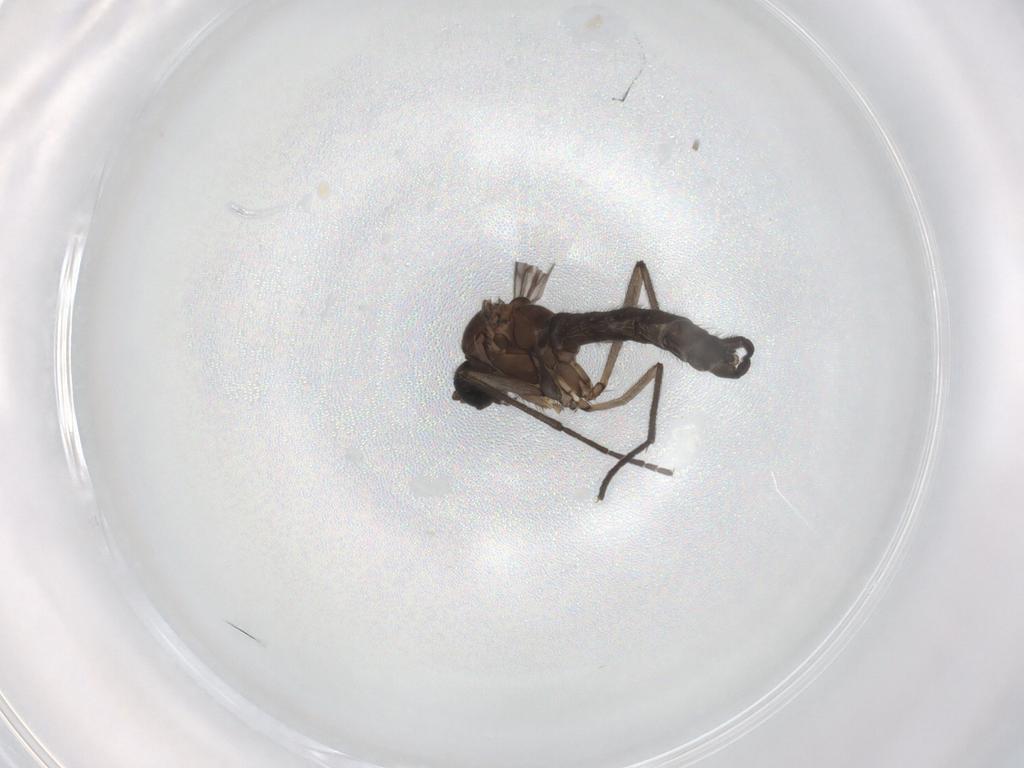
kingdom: Animalia
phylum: Arthropoda
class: Insecta
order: Diptera
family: Sciaridae
